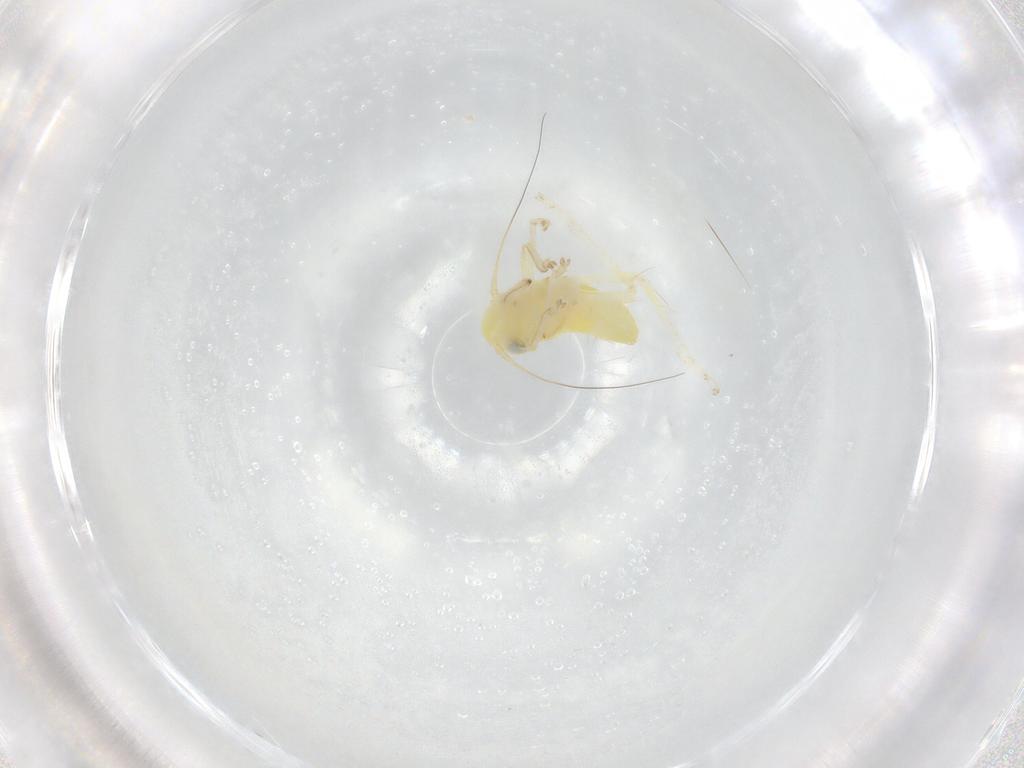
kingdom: Animalia
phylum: Arthropoda
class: Insecta
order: Hemiptera
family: Cicadellidae
